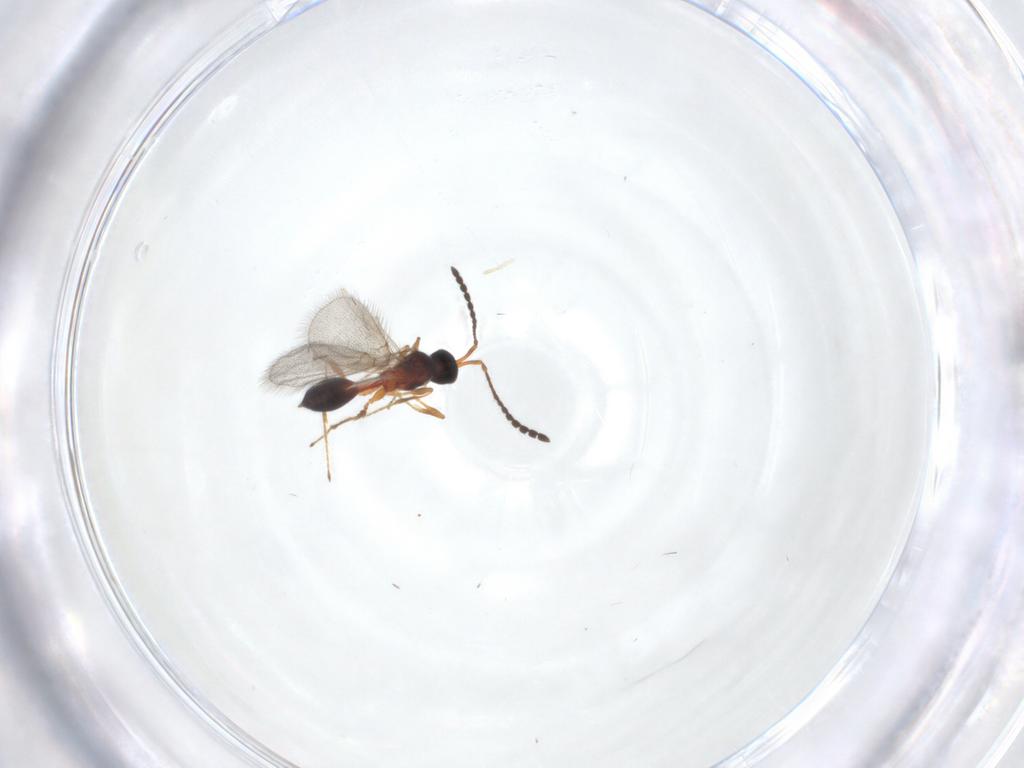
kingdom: Animalia
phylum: Arthropoda
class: Insecta
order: Hymenoptera
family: Diapriidae
